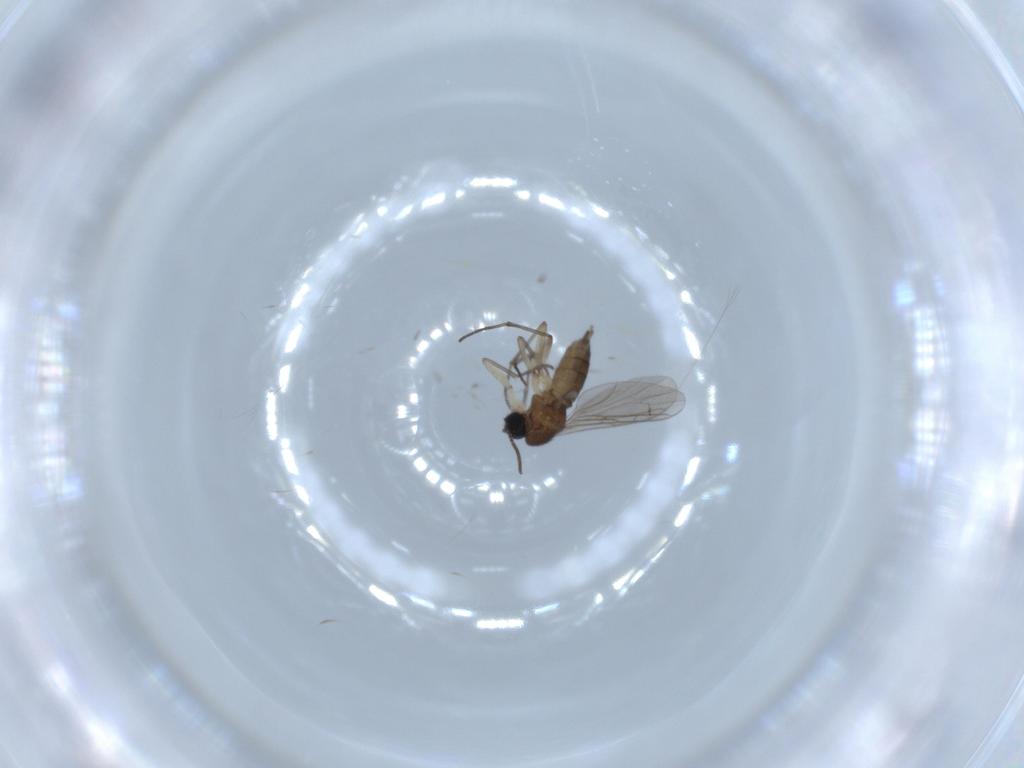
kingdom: Animalia
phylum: Arthropoda
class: Insecta
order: Diptera
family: Sciaridae
